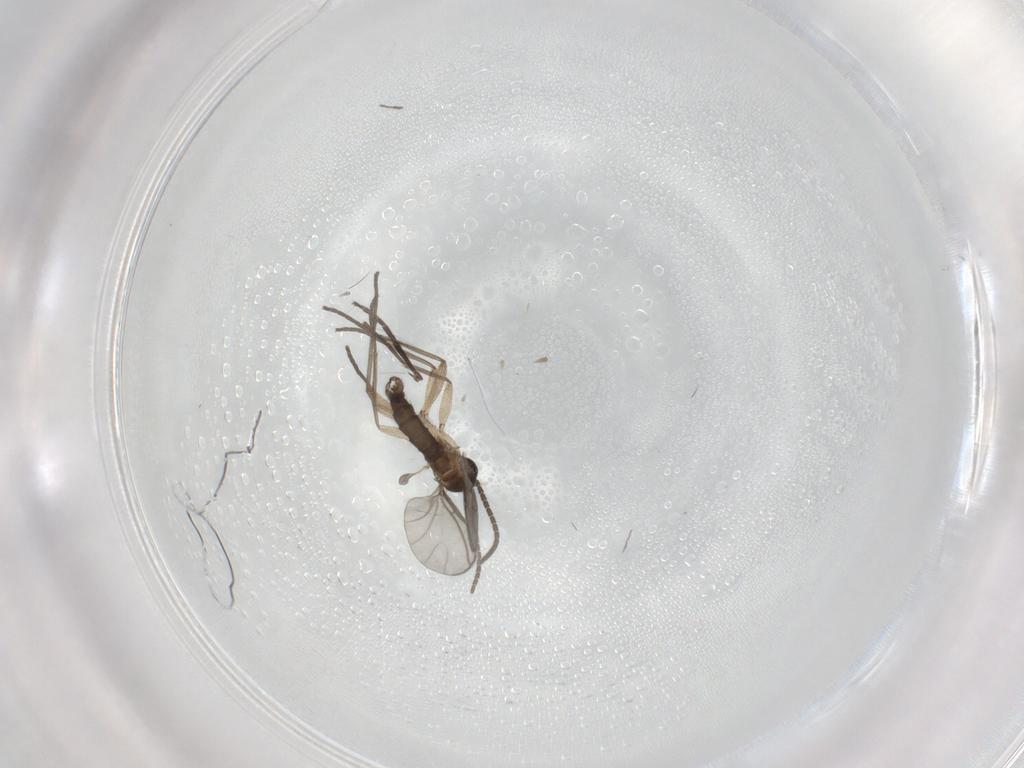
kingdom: Animalia
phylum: Arthropoda
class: Insecta
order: Diptera
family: Sciaridae
